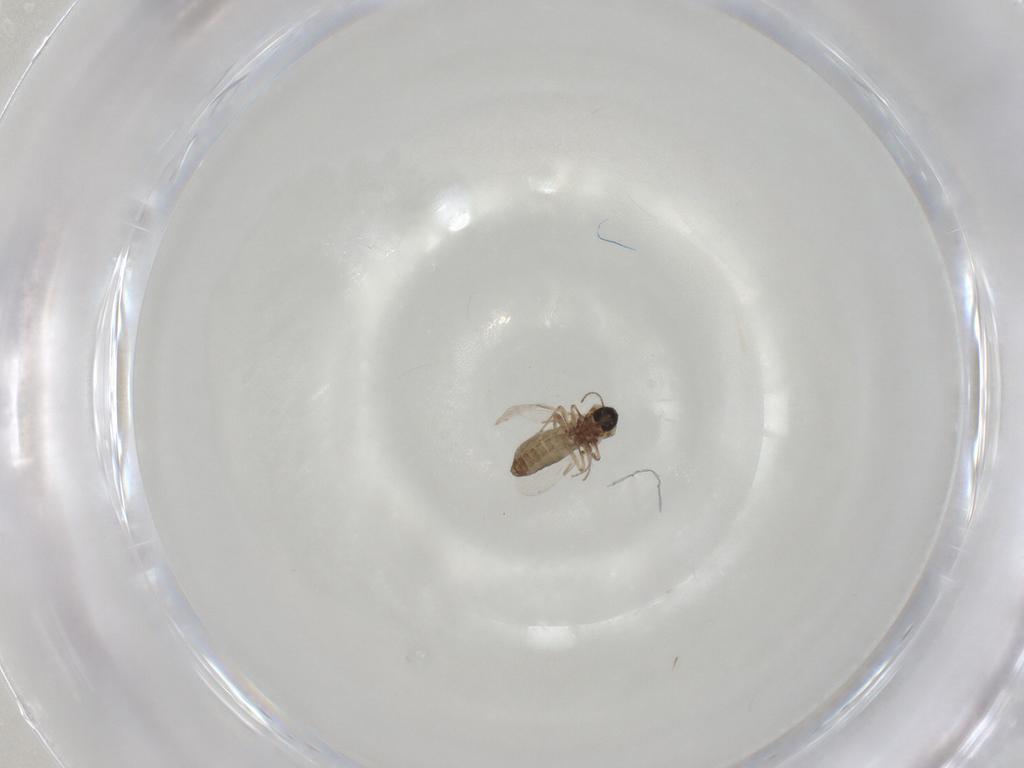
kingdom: Animalia
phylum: Arthropoda
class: Insecta
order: Diptera
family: Ceratopogonidae
